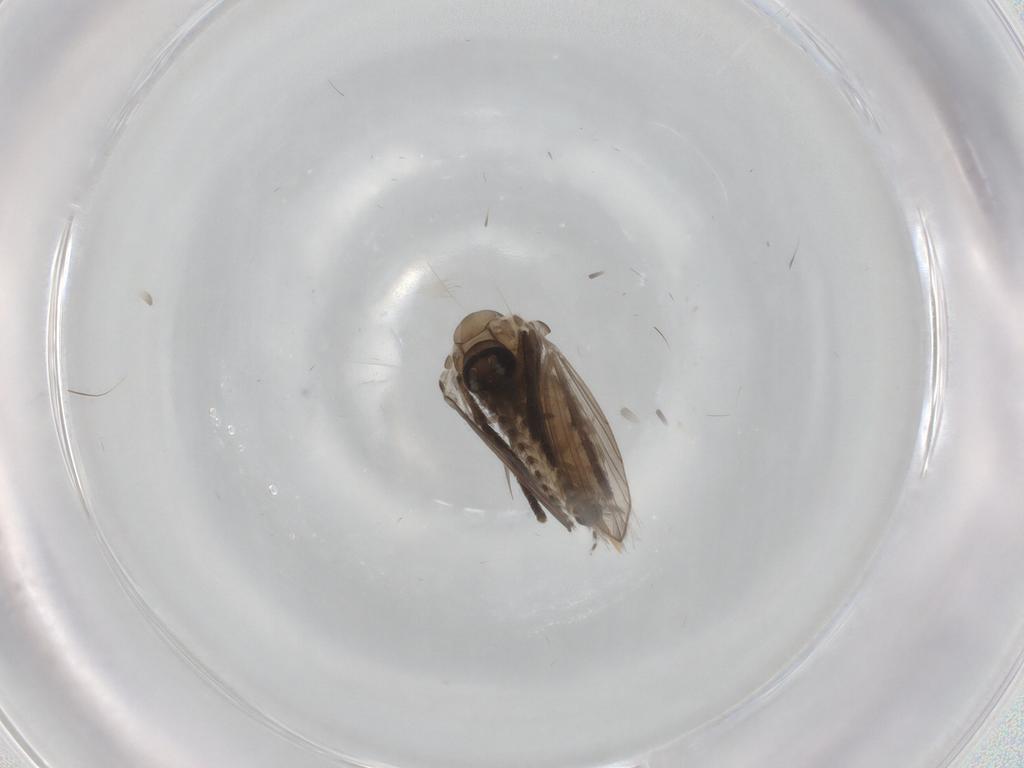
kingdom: Animalia
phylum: Arthropoda
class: Insecta
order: Diptera
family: Psychodidae
